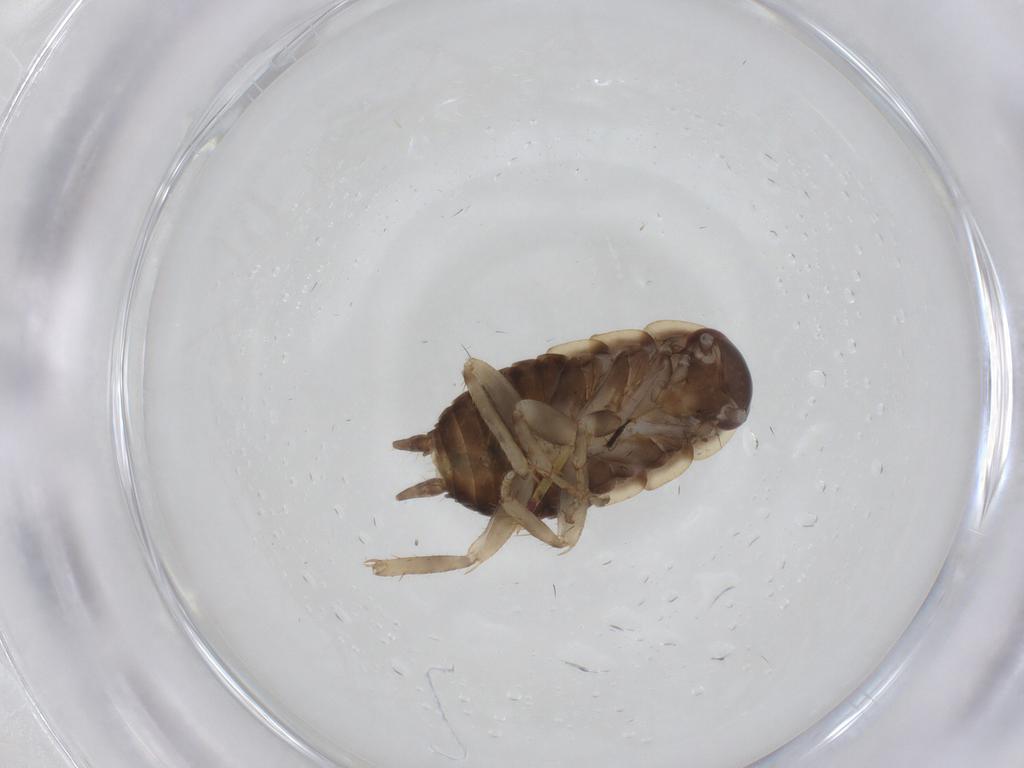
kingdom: Animalia
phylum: Arthropoda
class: Insecta
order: Blattodea
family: Ectobiidae
